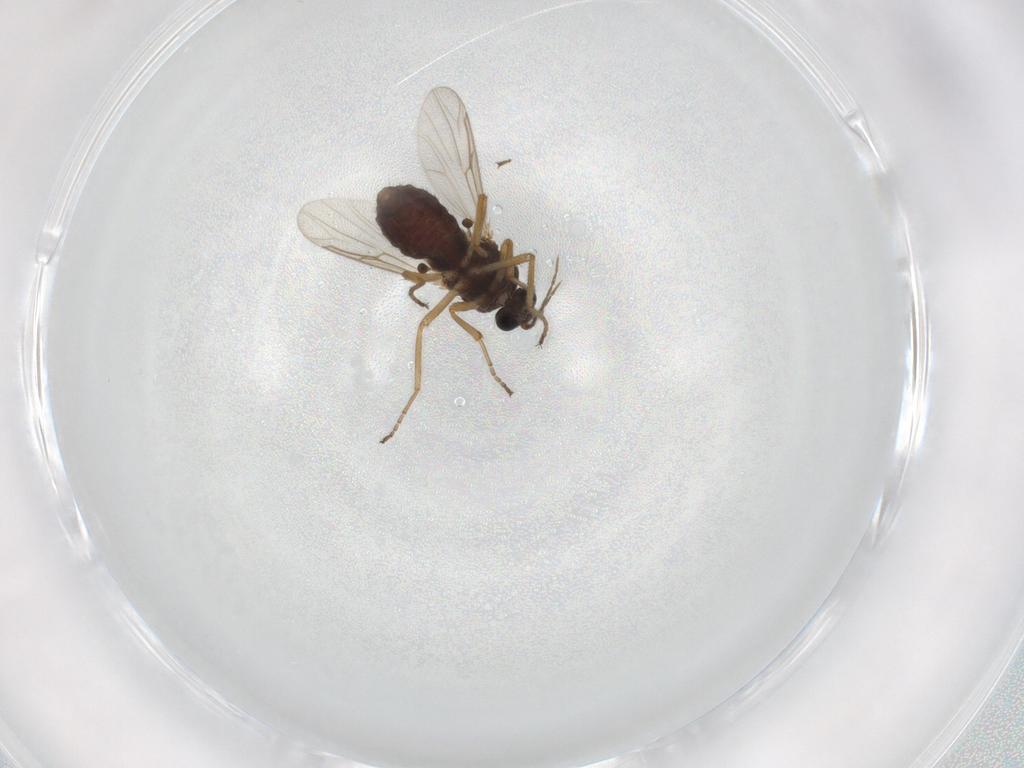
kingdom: Animalia
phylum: Arthropoda
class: Insecta
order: Diptera
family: Ceratopogonidae
